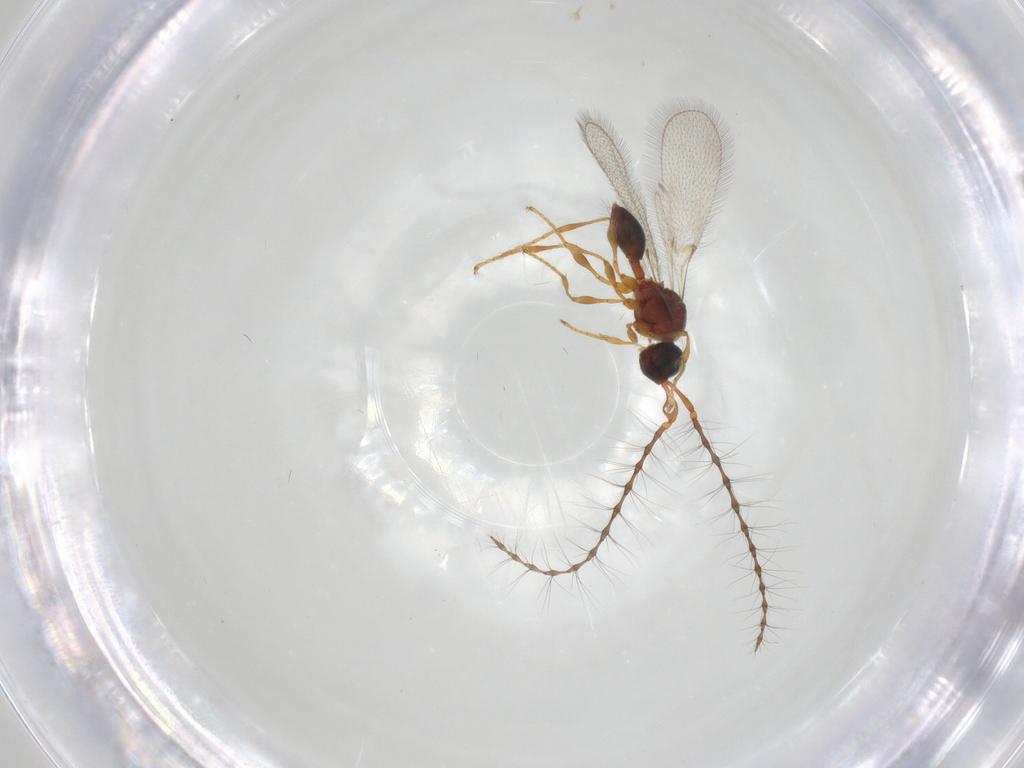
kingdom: Animalia
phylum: Arthropoda
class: Insecta
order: Hymenoptera
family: Diapriidae
